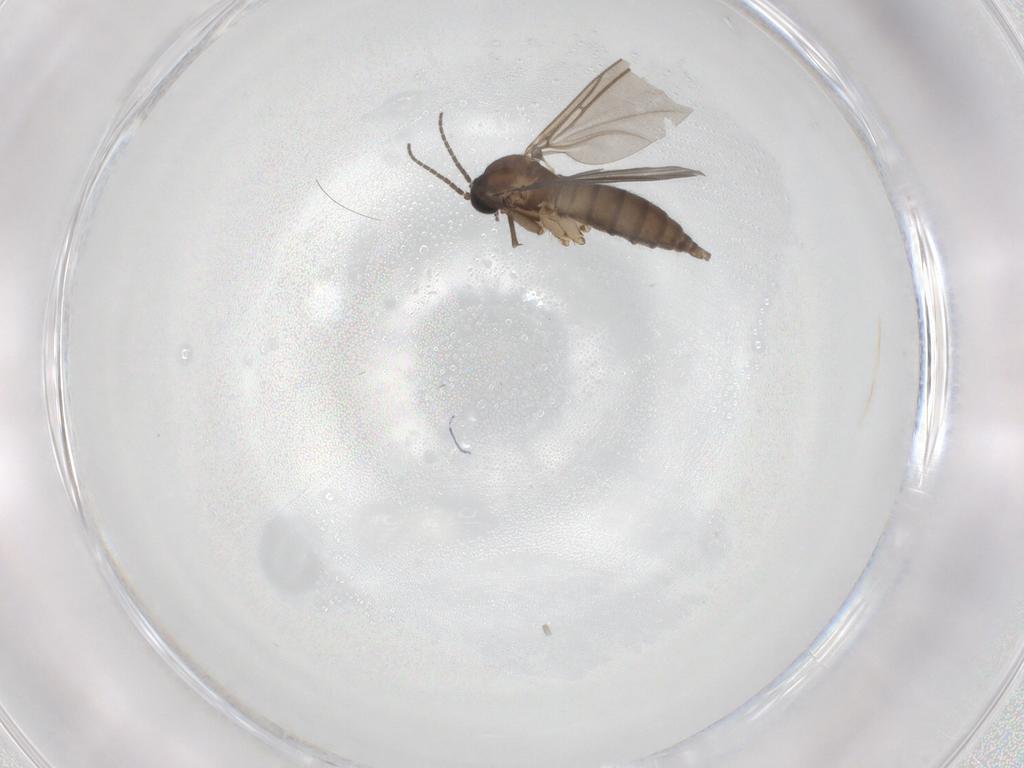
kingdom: Animalia
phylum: Arthropoda
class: Insecta
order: Diptera
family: Sciaridae
